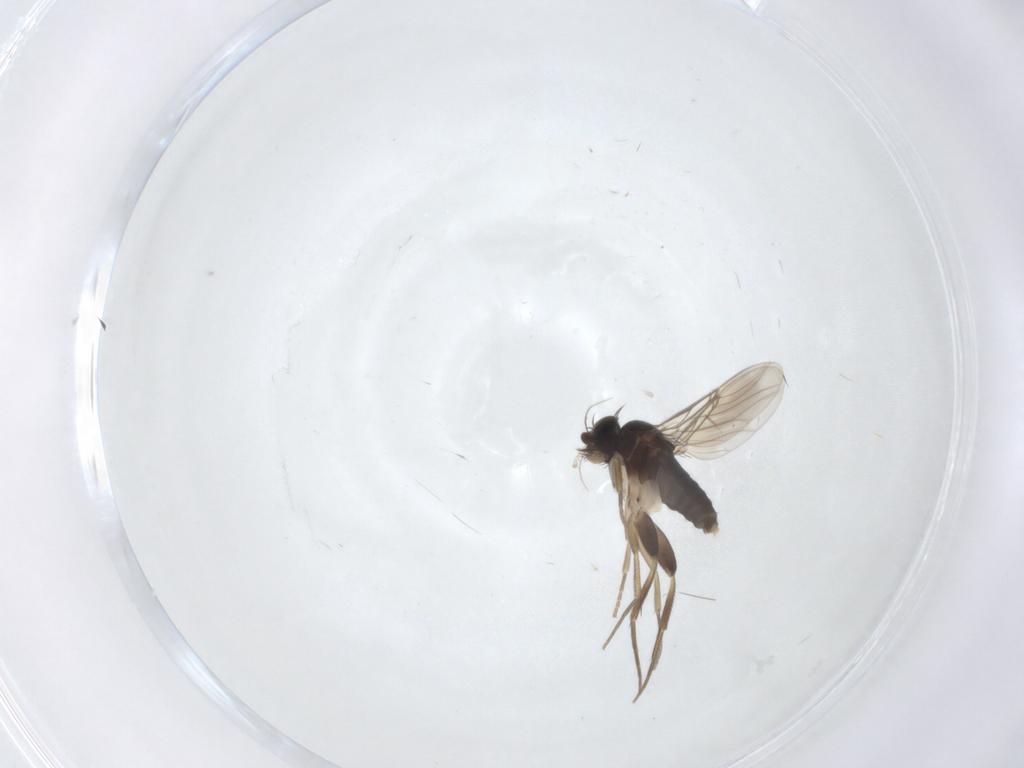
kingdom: Animalia
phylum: Arthropoda
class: Insecta
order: Diptera
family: Phoridae
